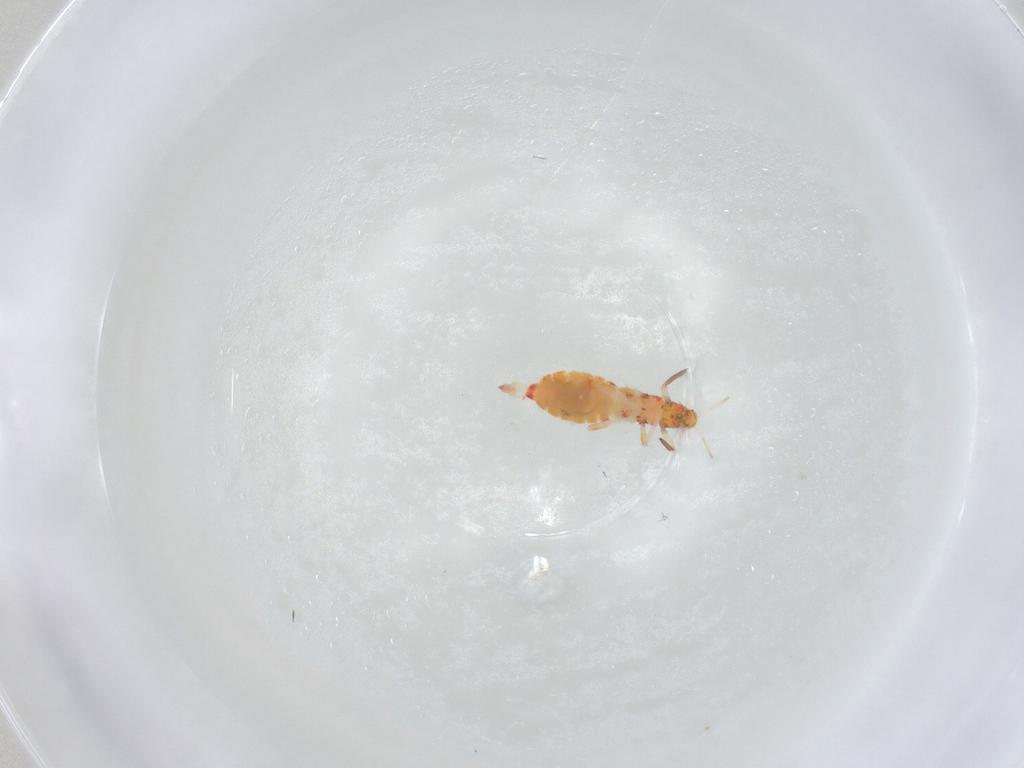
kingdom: Animalia
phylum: Arthropoda
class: Insecta
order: Thysanoptera
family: Aeolothripidae
